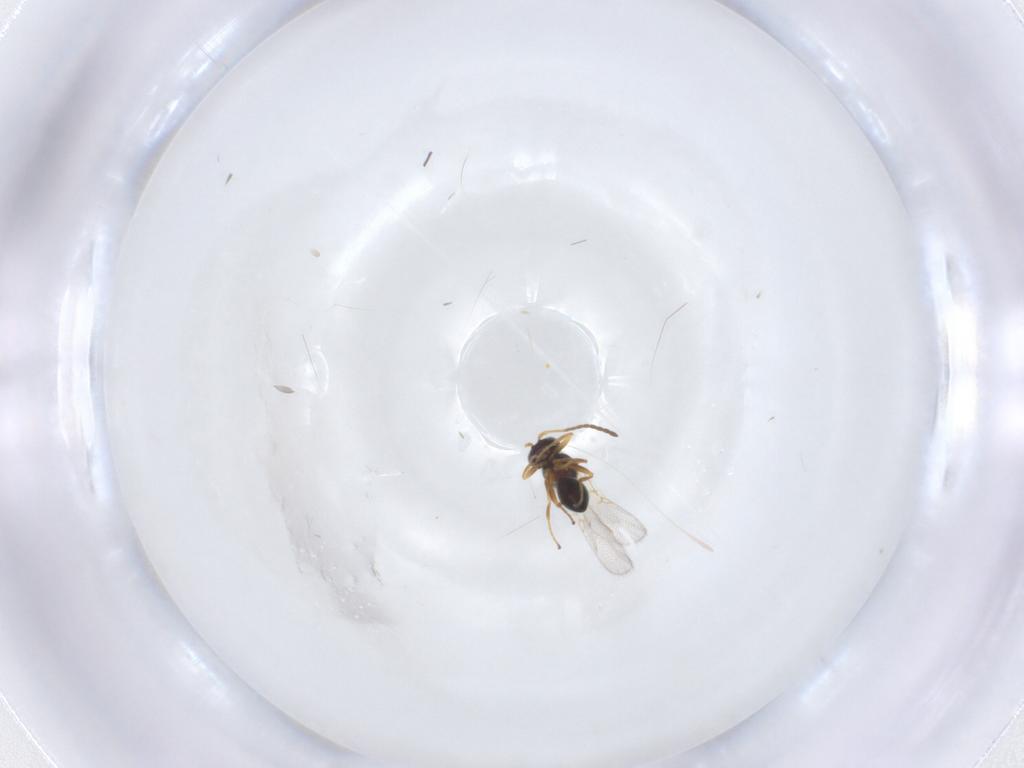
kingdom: Animalia
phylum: Arthropoda
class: Insecta
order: Hymenoptera
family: Figitidae
